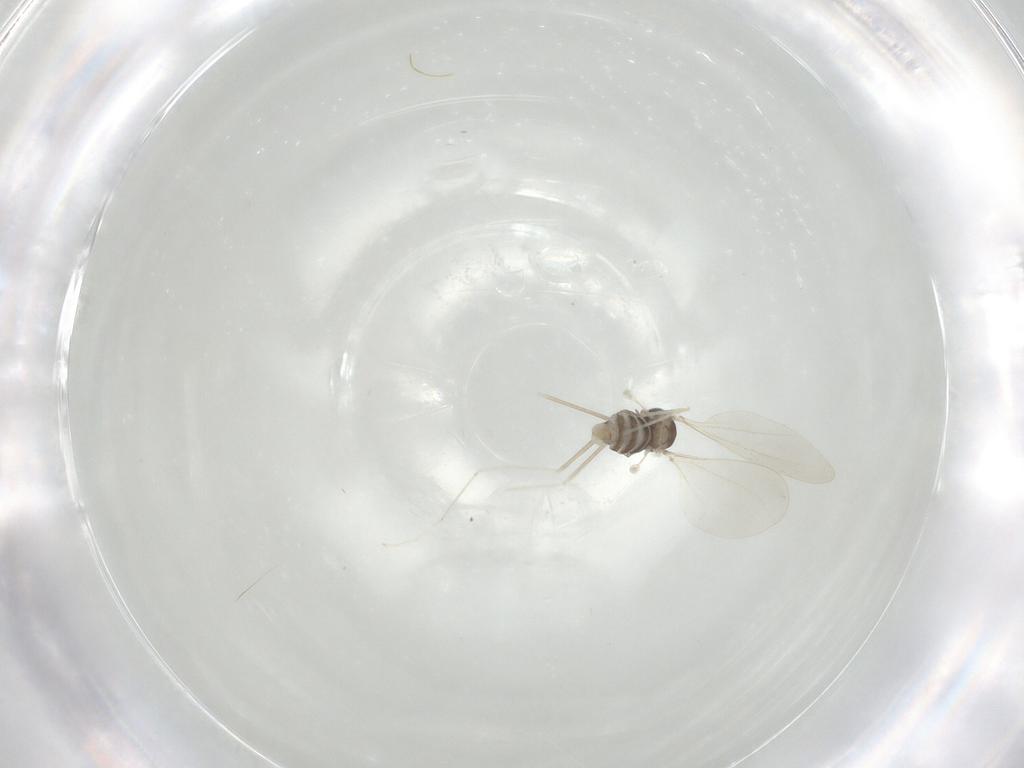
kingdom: Animalia
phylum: Arthropoda
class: Insecta
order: Diptera
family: Cecidomyiidae
